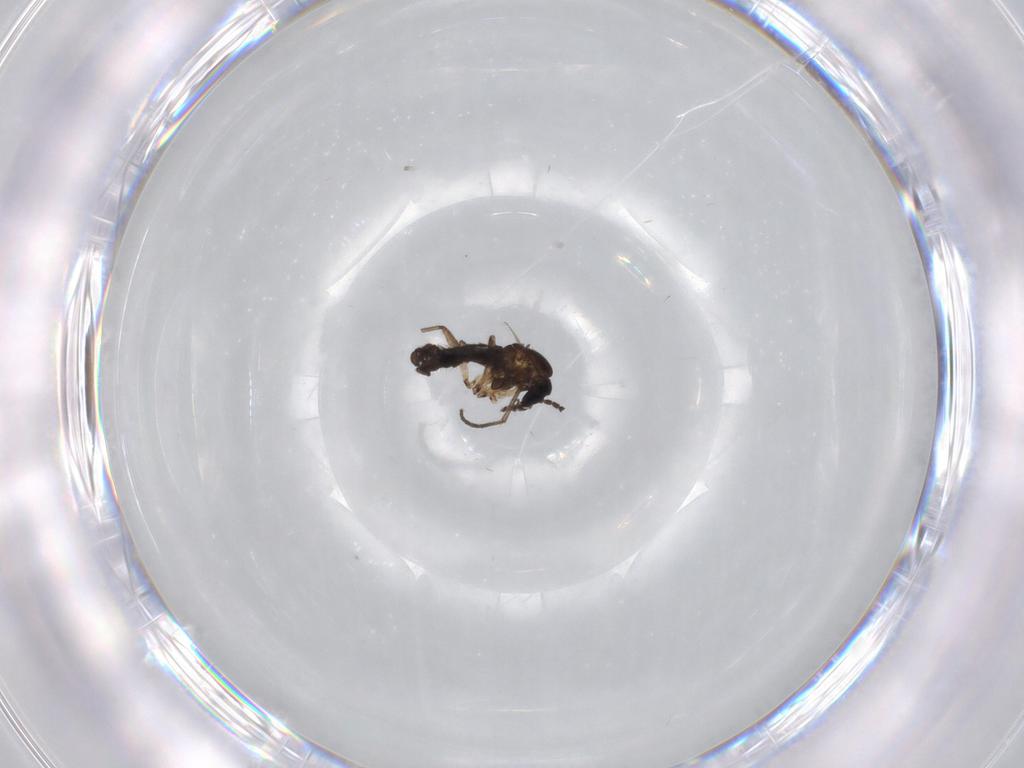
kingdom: Animalia
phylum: Arthropoda
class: Insecta
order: Diptera
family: Sciaridae
